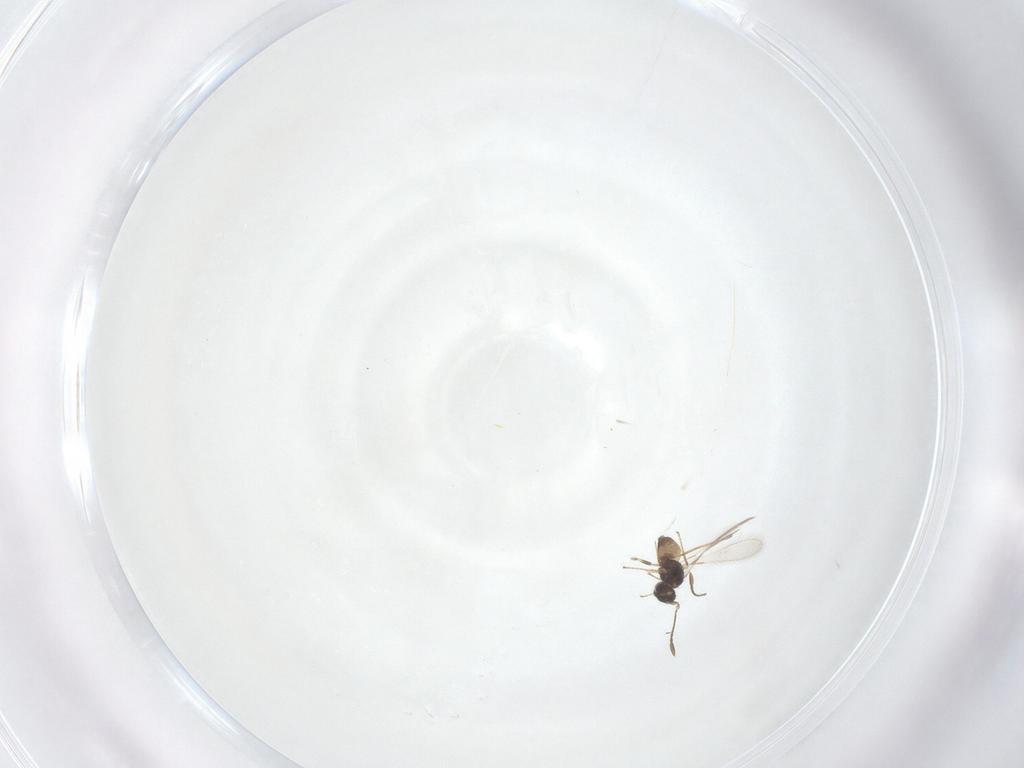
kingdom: Animalia
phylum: Arthropoda
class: Insecta
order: Hymenoptera
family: Mymaridae
